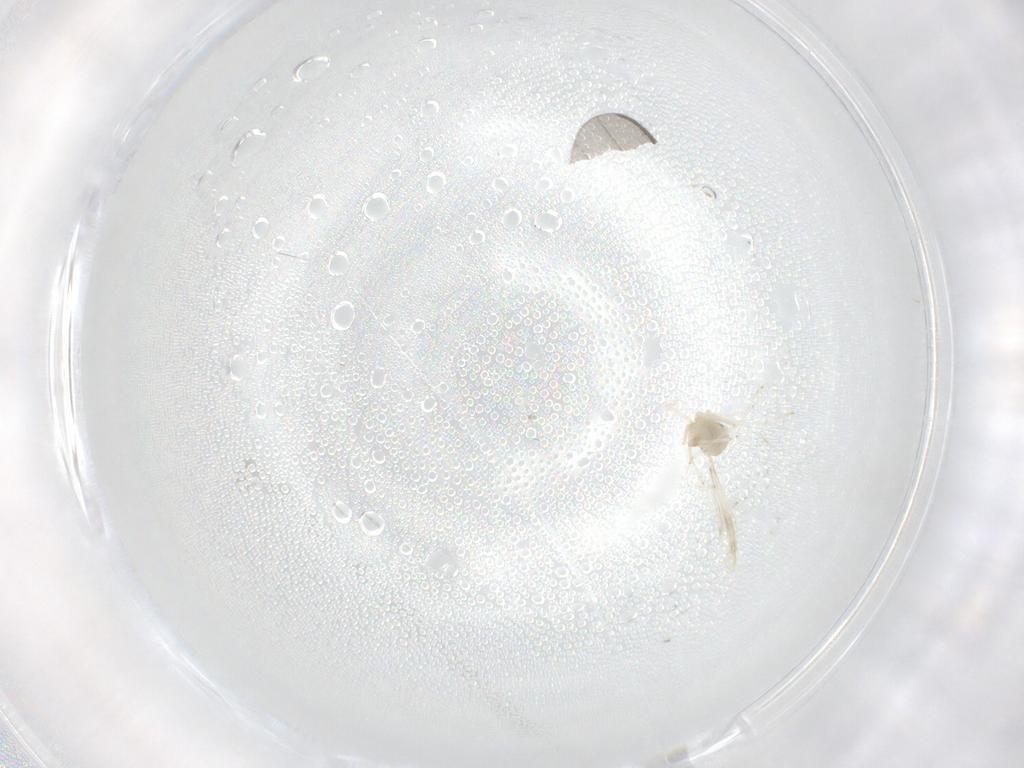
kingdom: Animalia
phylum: Arthropoda
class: Insecta
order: Diptera
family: Cecidomyiidae
